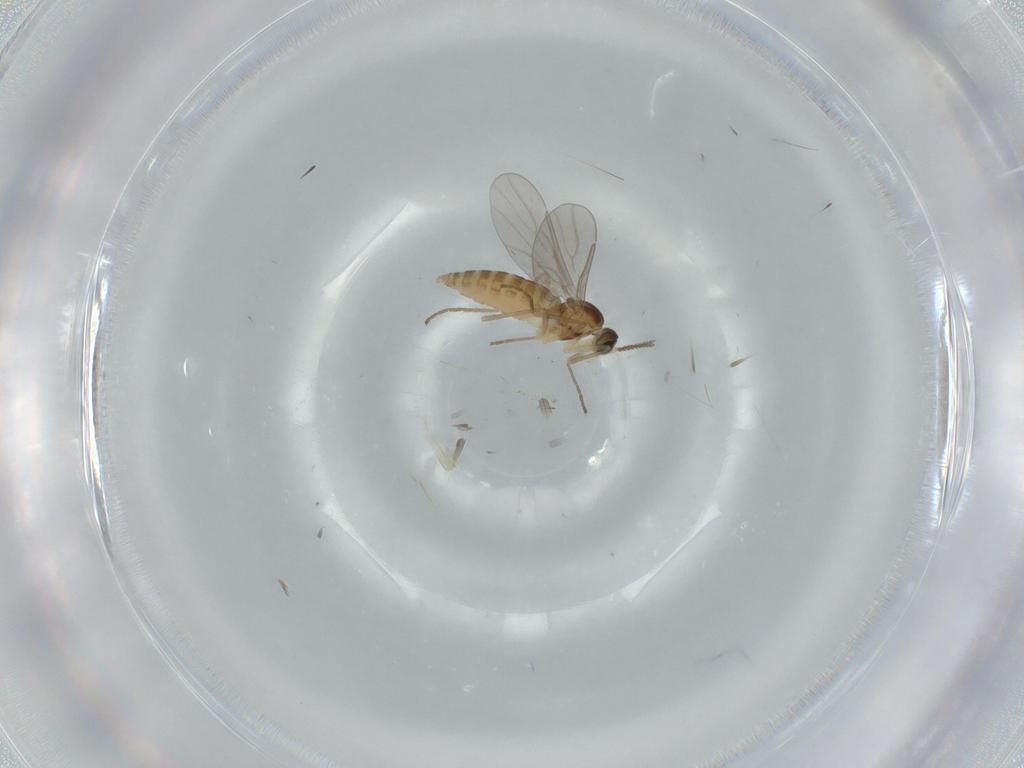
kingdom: Animalia
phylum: Arthropoda
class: Insecta
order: Diptera
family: Cecidomyiidae
